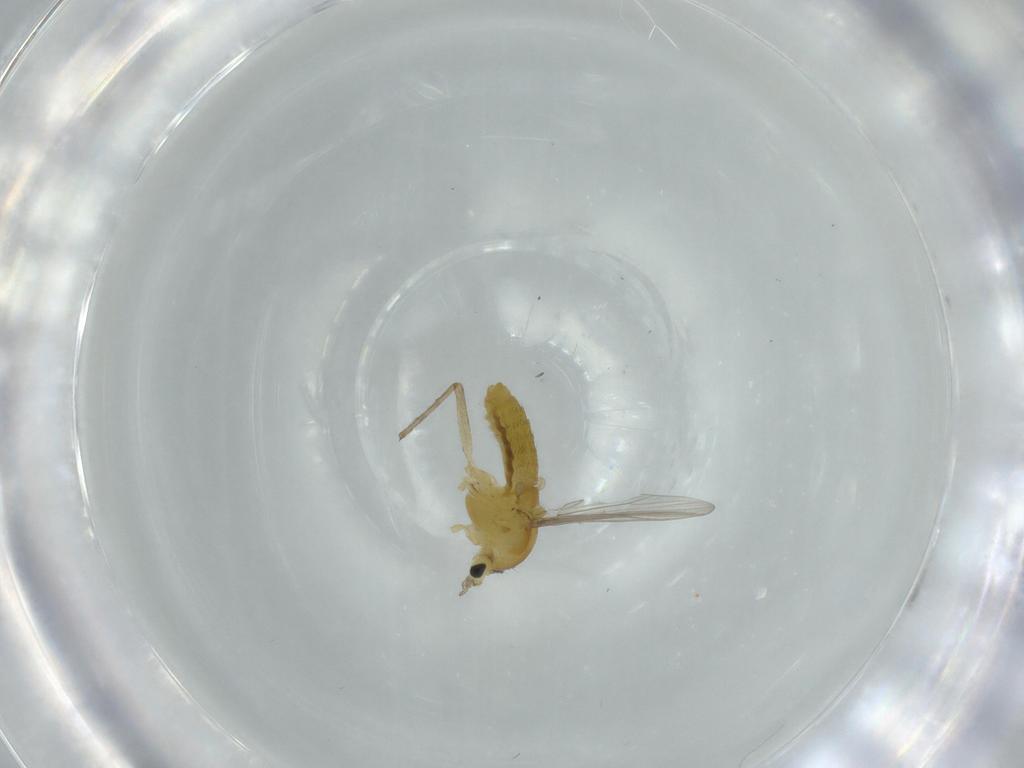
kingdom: Animalia
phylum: Arthropoda
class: Insecta
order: Diptera
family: Chironomidae
